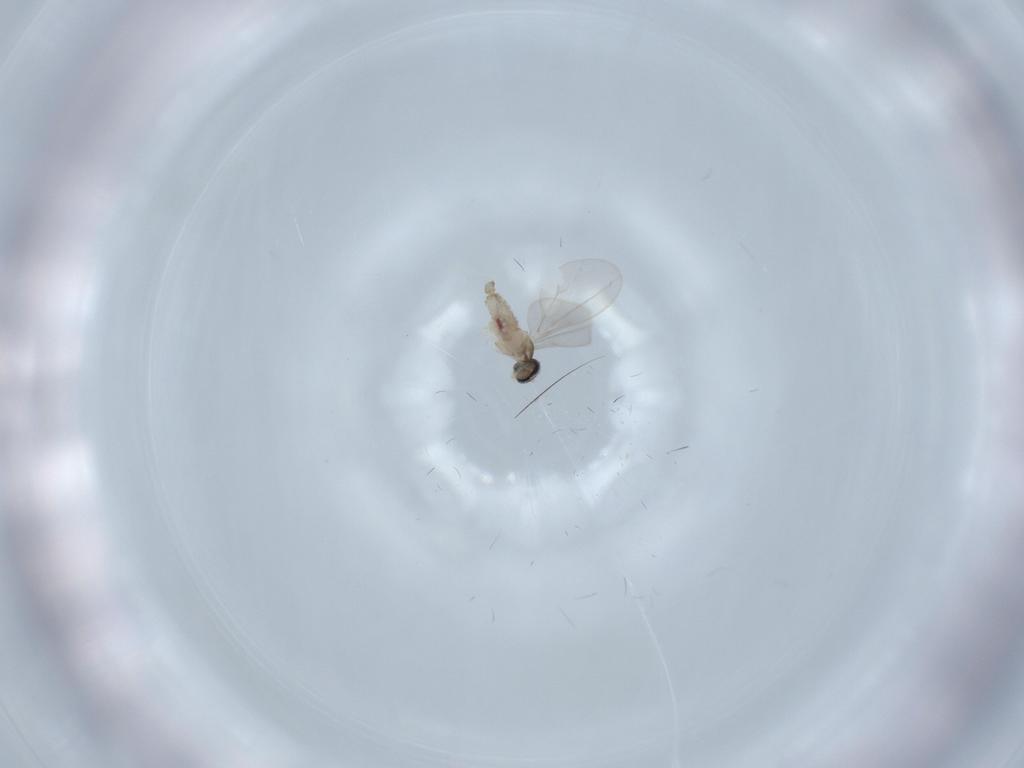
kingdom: Animalia
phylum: Arthropoda
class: Insecta
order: Diptera
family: Cecidomyiidae
